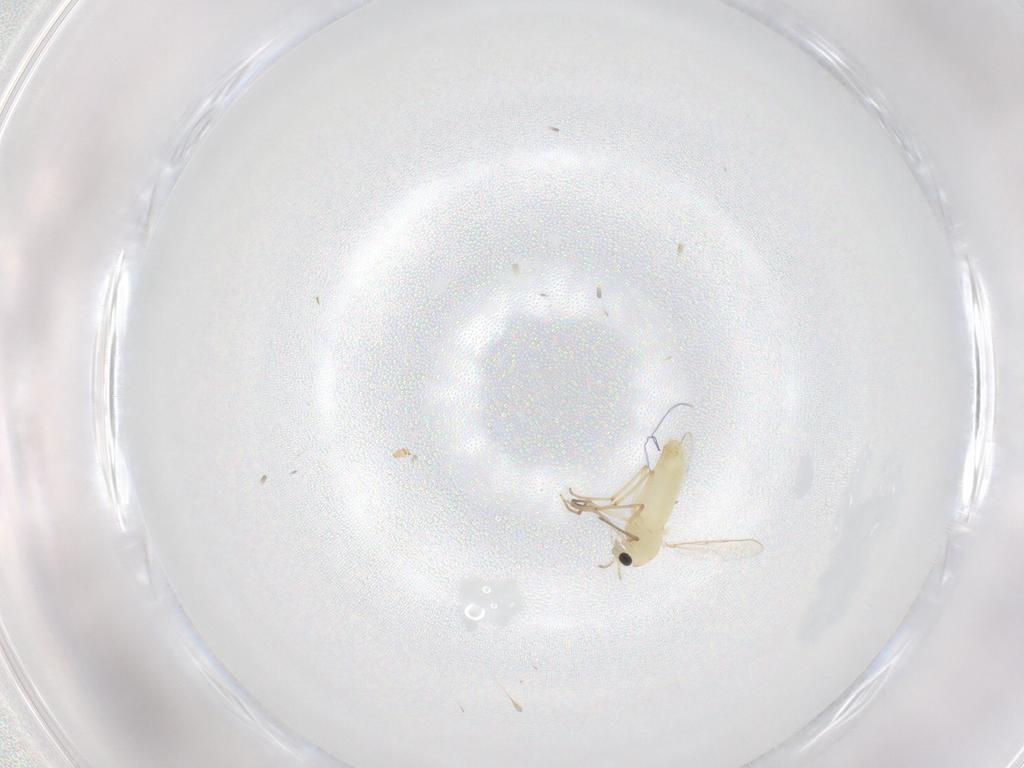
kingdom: Animalia
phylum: Arthropoda
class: Insecta
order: Diptera
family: Chironomidae
